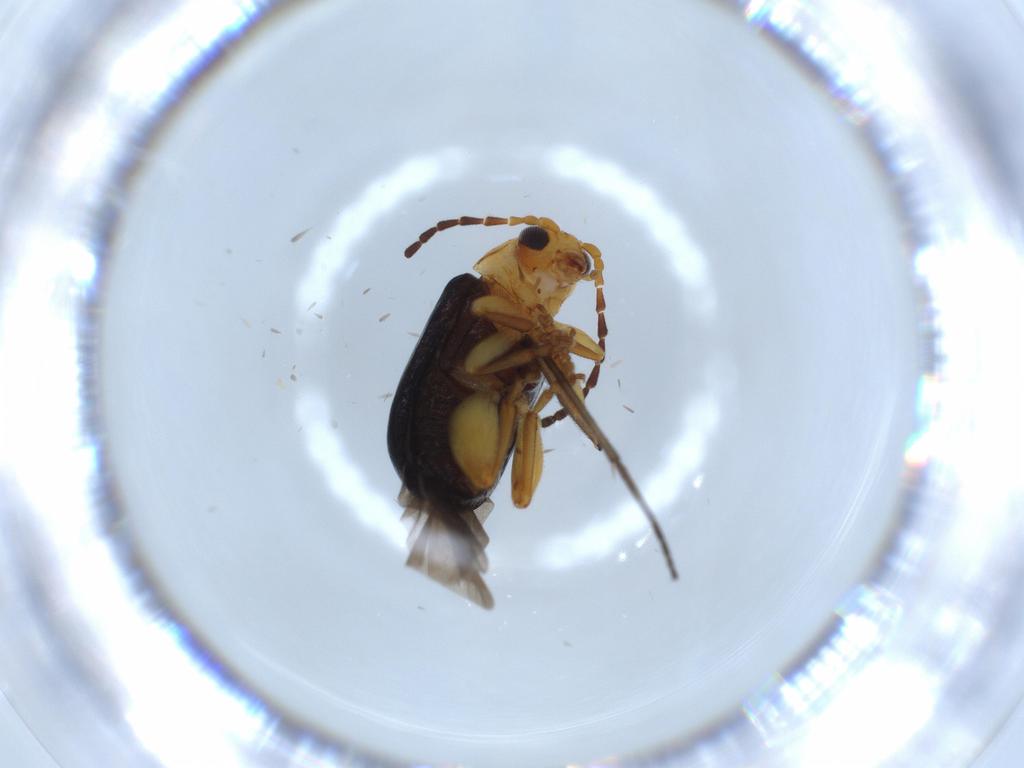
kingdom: Animalia
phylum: Arthropoda
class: Insecta
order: Coleoptera
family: Chrysomelidae
